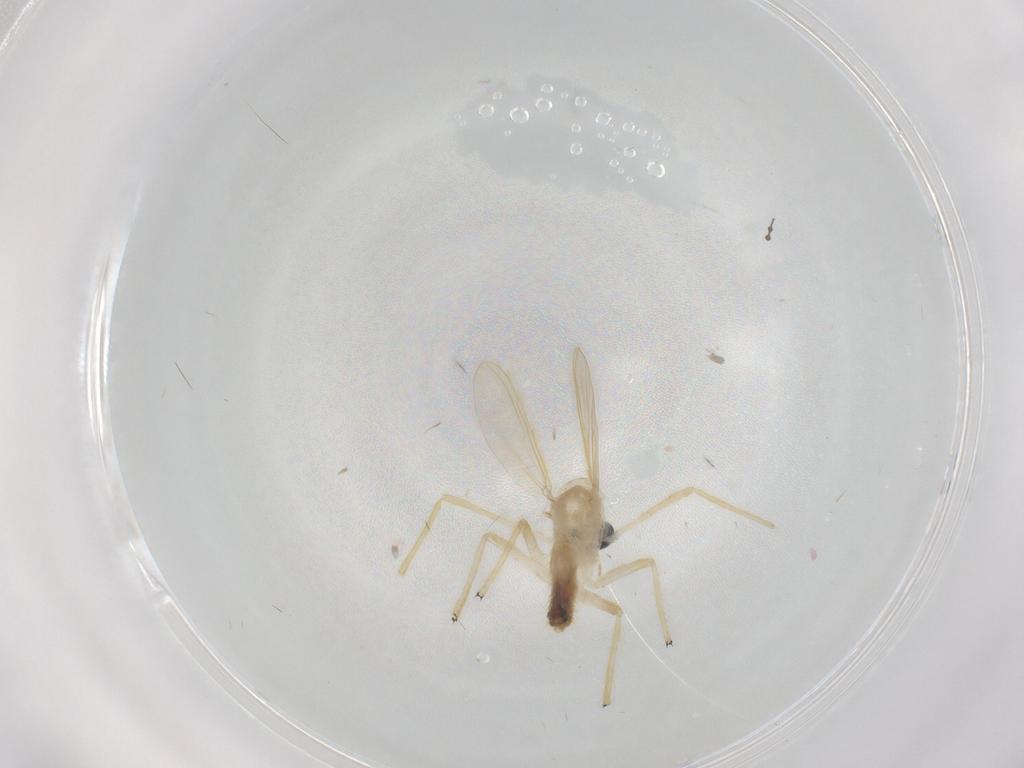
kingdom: Animalia
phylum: Arthropoda
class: Insecta
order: Diptera
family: Chironomidae
